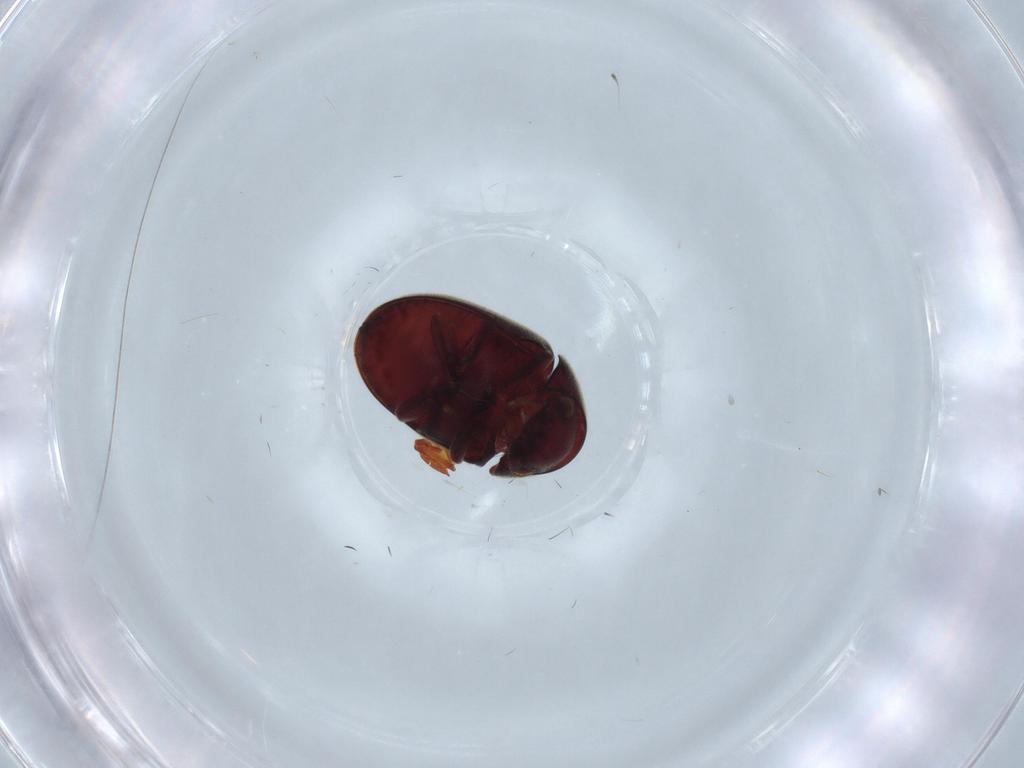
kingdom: Animalia
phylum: Arthropoda
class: Insecta
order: Coleoptera
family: Ptinidae
